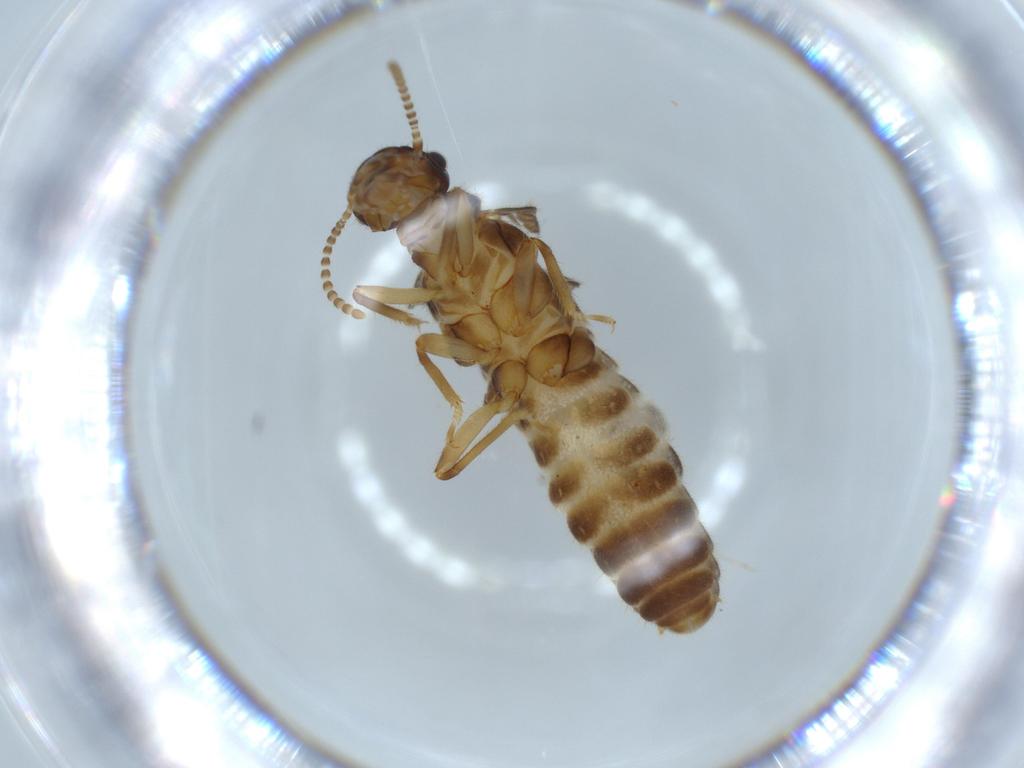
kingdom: Animalia
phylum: Arthropoda
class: Insecta
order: Blattodea
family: Termitidae
